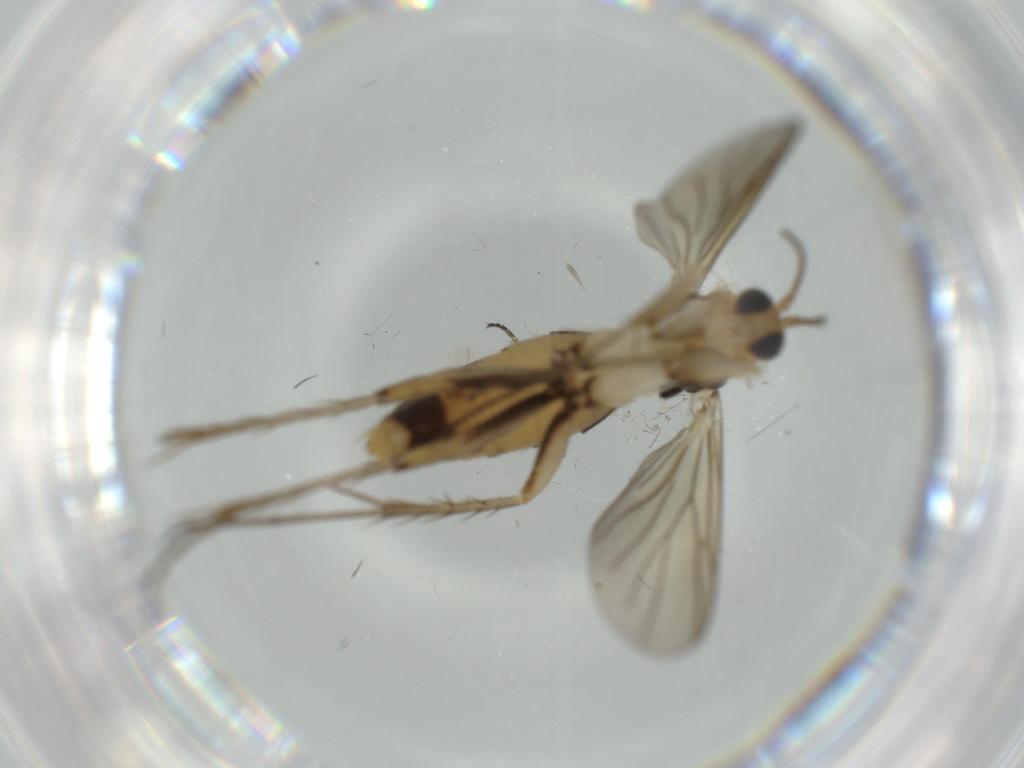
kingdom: Animalia
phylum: Arthropoda
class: Insecta
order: Diptera
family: Mycetophilidae
